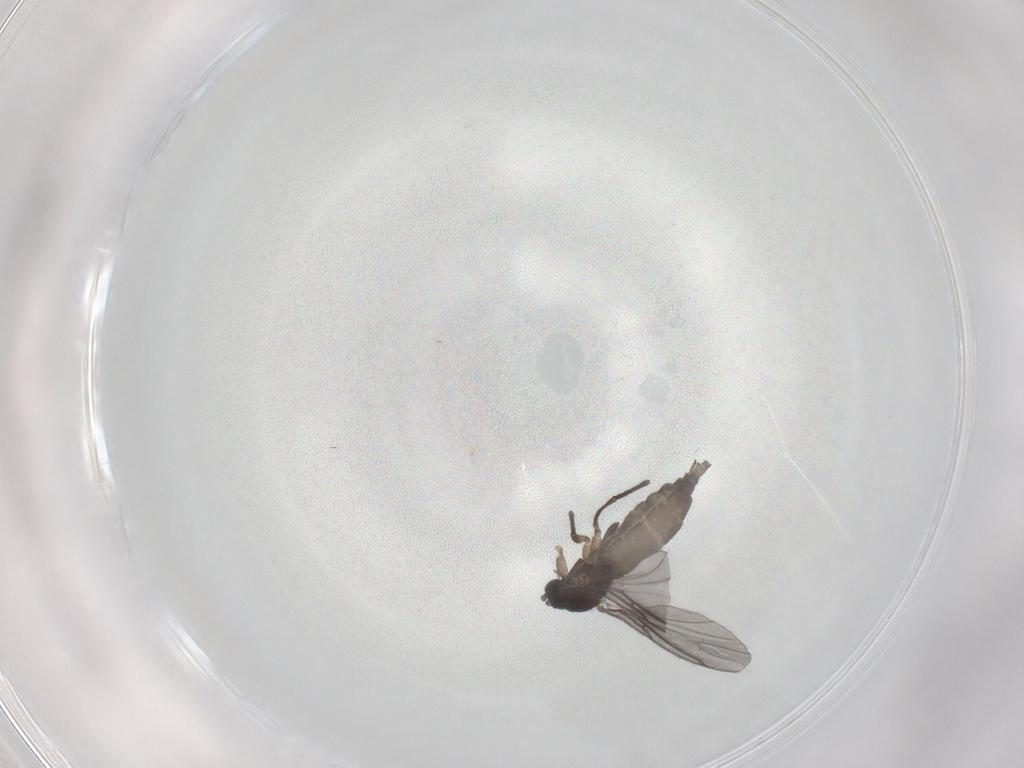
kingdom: Animalia
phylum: Arthropoda
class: Insecta
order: Diptera
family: Sciaridae
